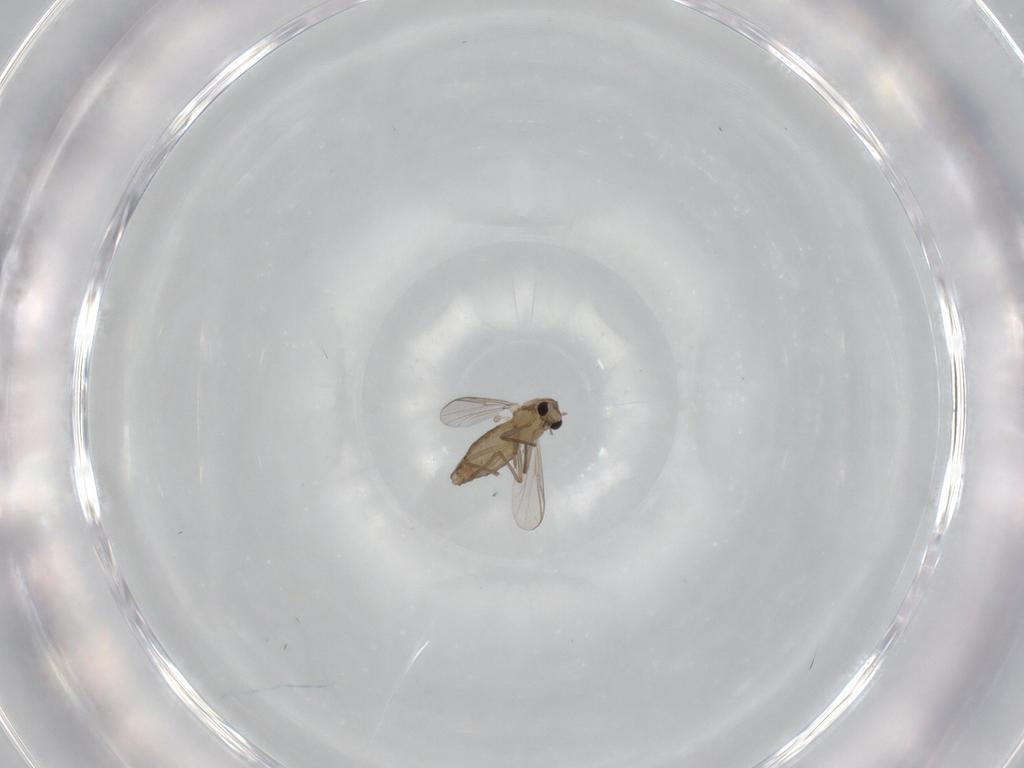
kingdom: Animalia
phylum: Arthropoda
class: Insecta
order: Diptera
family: Chironomidae
